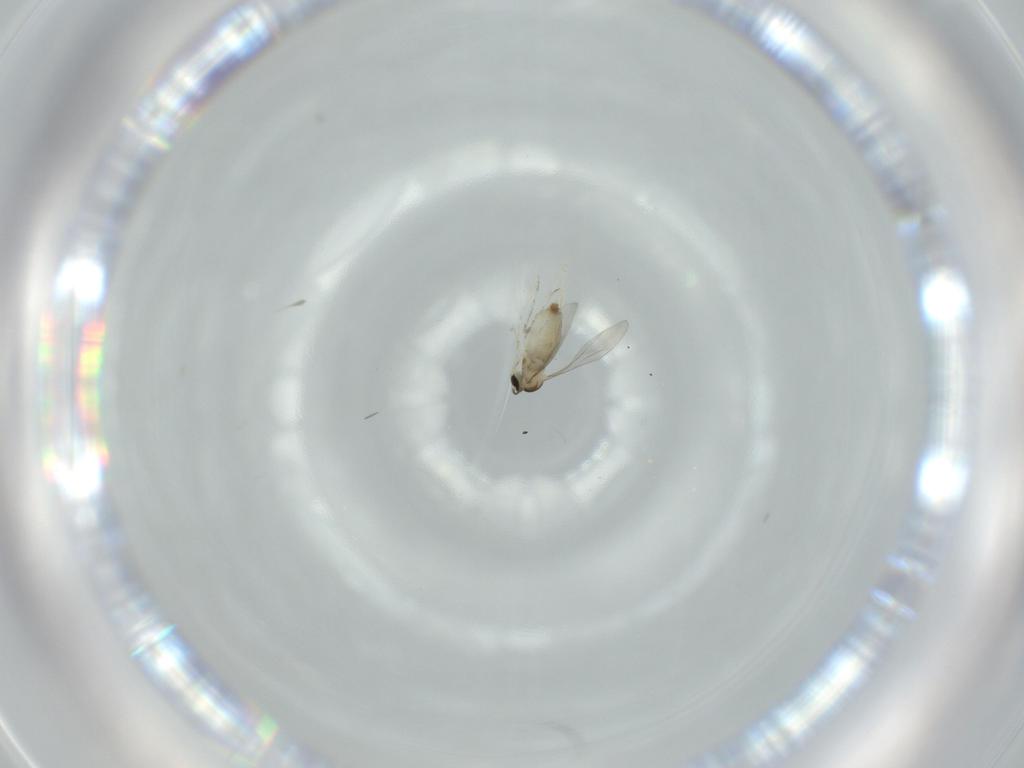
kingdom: Animalia
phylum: Arthropoda
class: Insecta
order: Diptera
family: Cecidomyiidae
